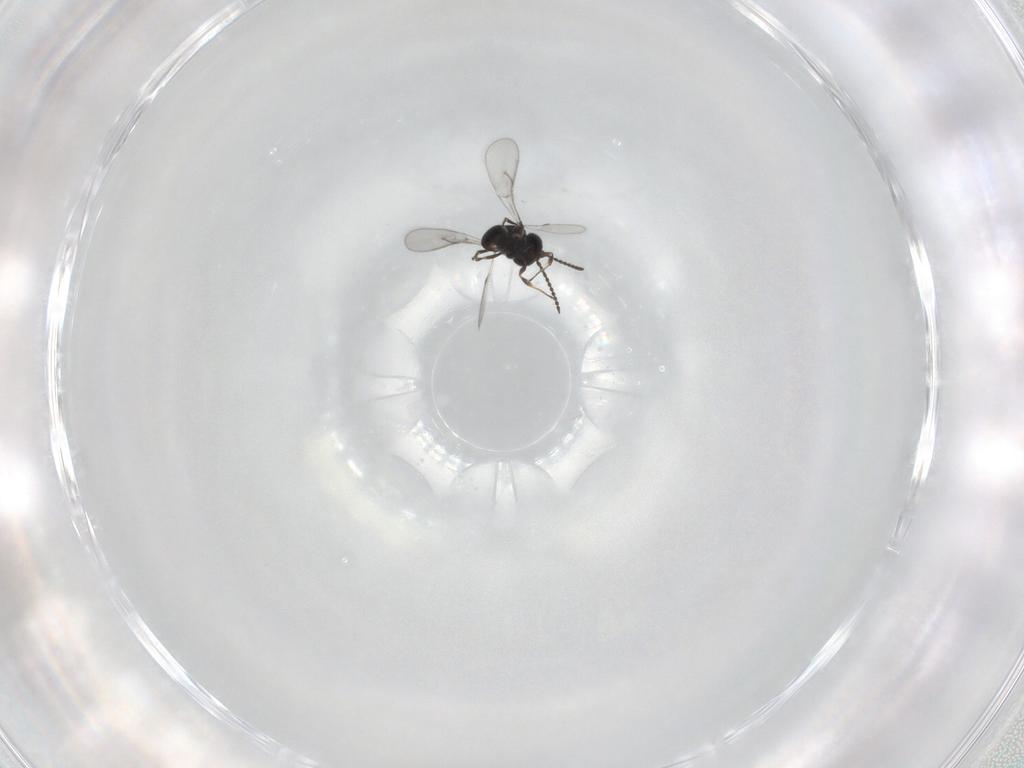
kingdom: Animalia
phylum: Arthropoda
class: Insecta
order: Hymenoptera
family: Scelionidae
